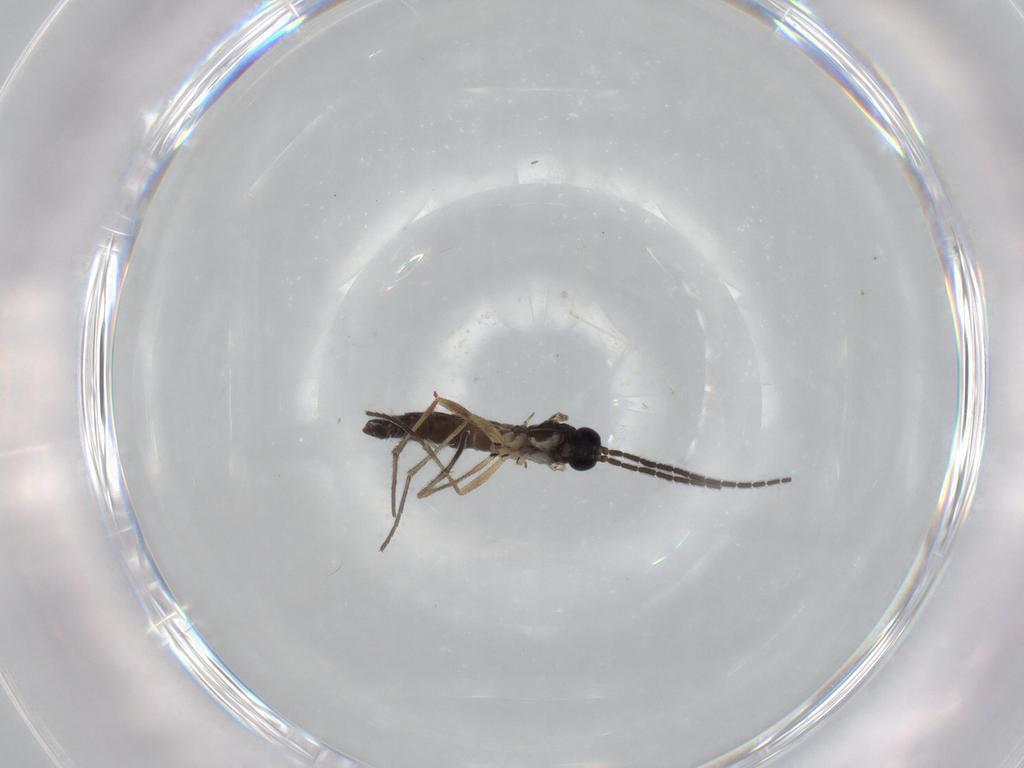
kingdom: Animalia
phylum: Arthropoda
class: Insecta
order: Diptera
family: Sciaridae
